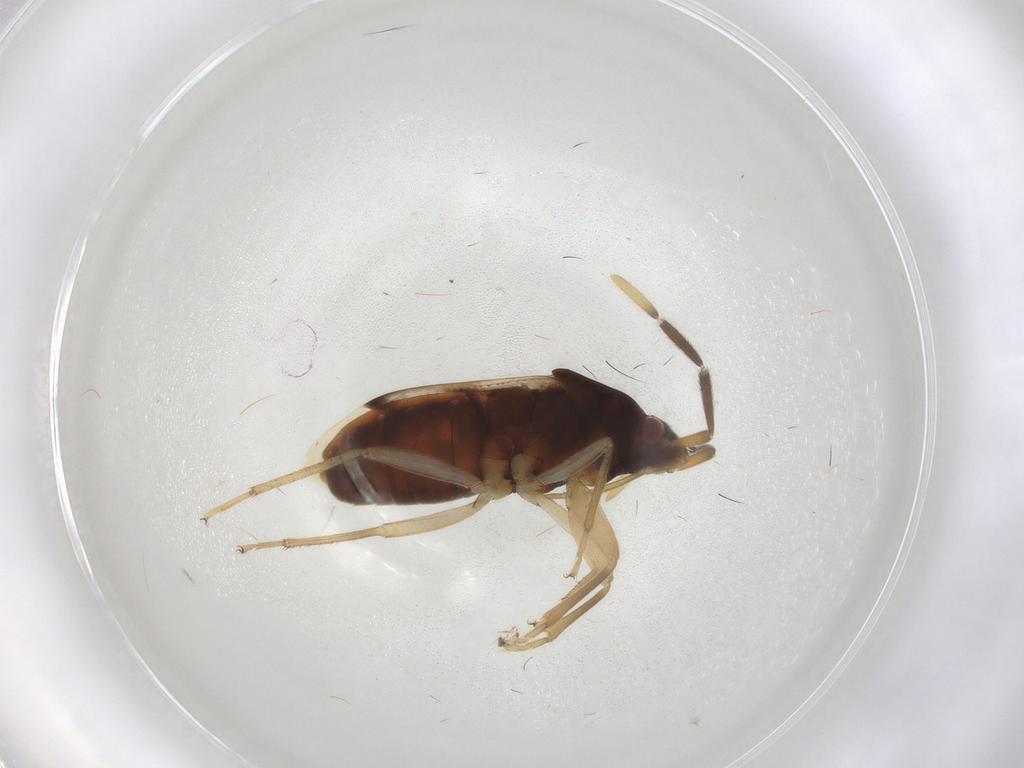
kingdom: Animalia
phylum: Arthropoda
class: Insecta
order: Hemiptera
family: Rhyparochromidae
